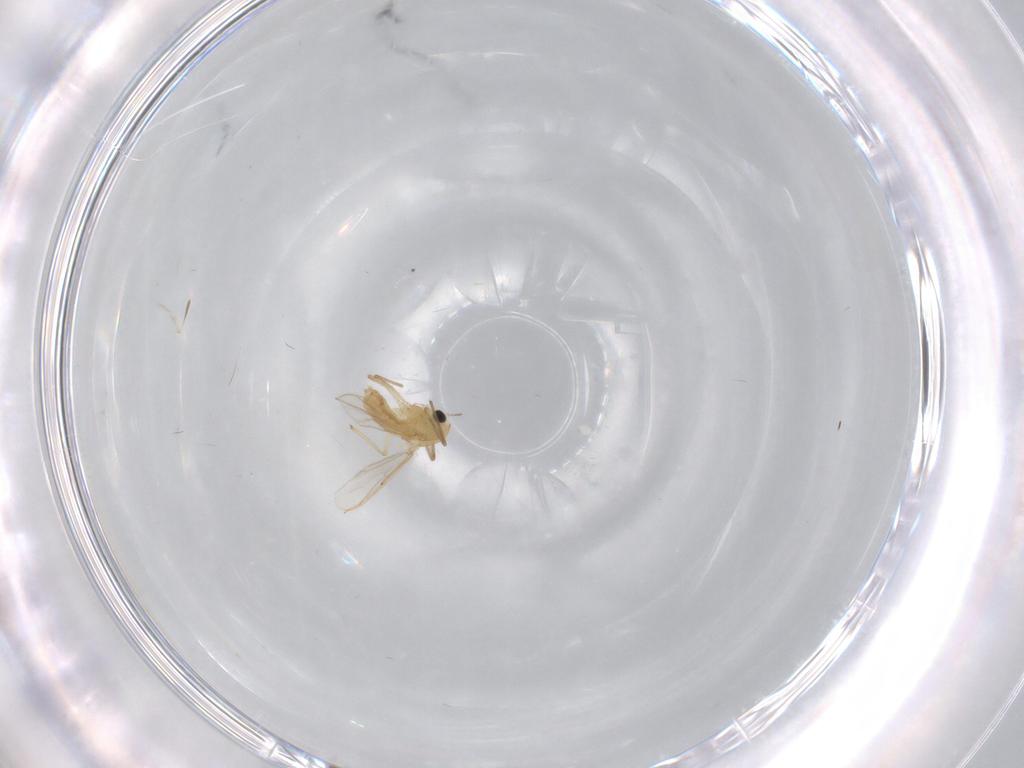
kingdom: Animalia
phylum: Arthropoda
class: Insecta
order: Diptera
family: Chironomidae
